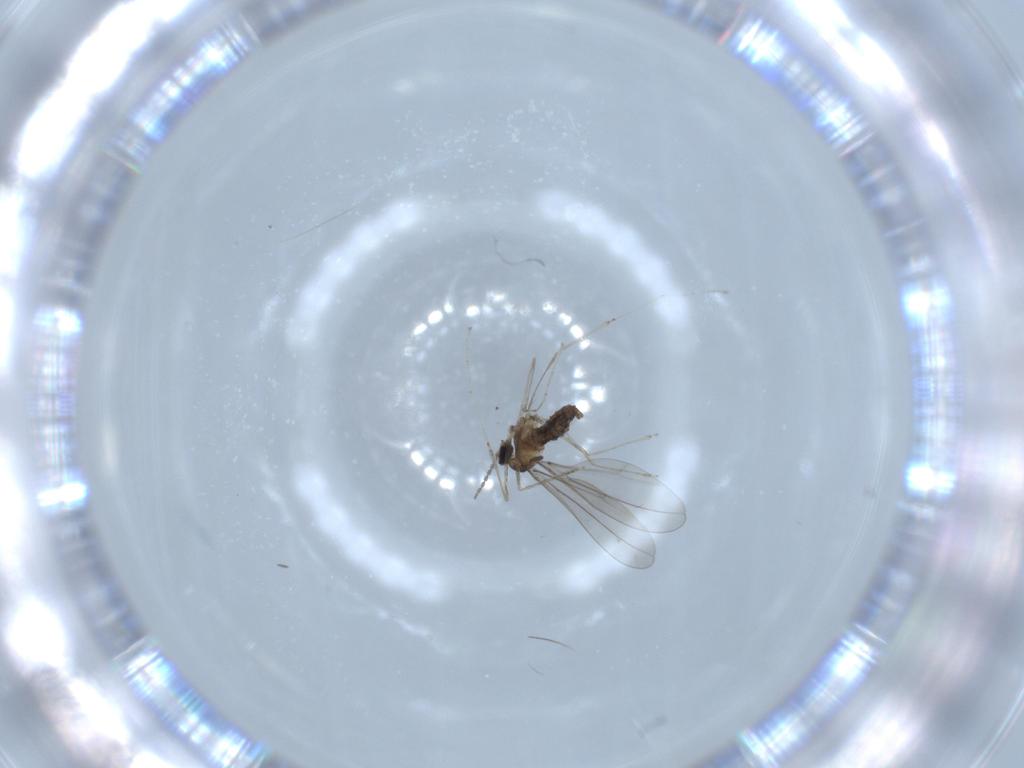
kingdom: Animalia
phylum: Arthropoda
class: Insecta
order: Diptera
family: Cecidomyiidae
